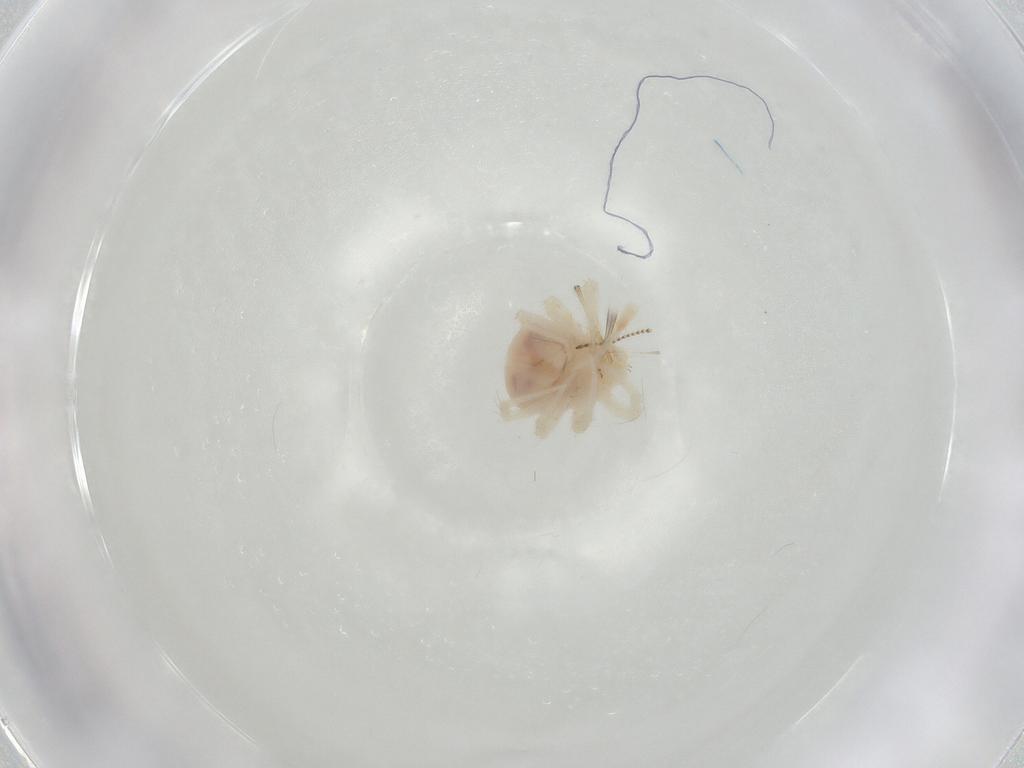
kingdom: Animalia
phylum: Arthropoda
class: Arachnida
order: Trombidiformes
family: Anystidae
